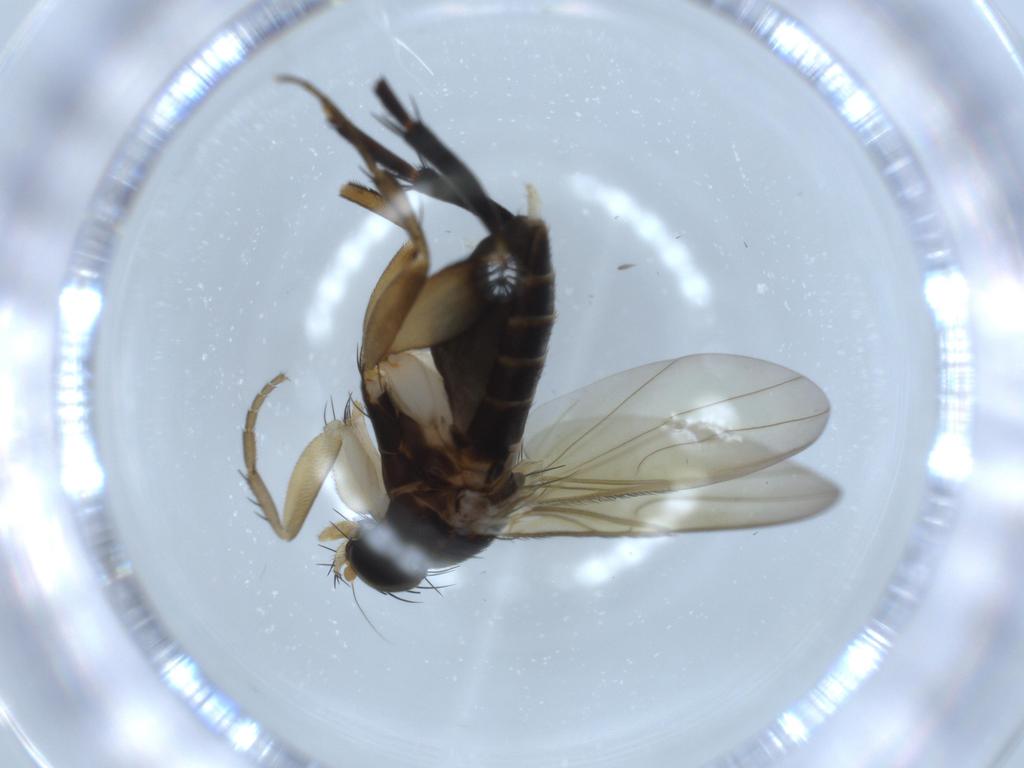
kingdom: Animalia
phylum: Arthropoda
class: Insecta
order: Diptera
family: Phoridae
